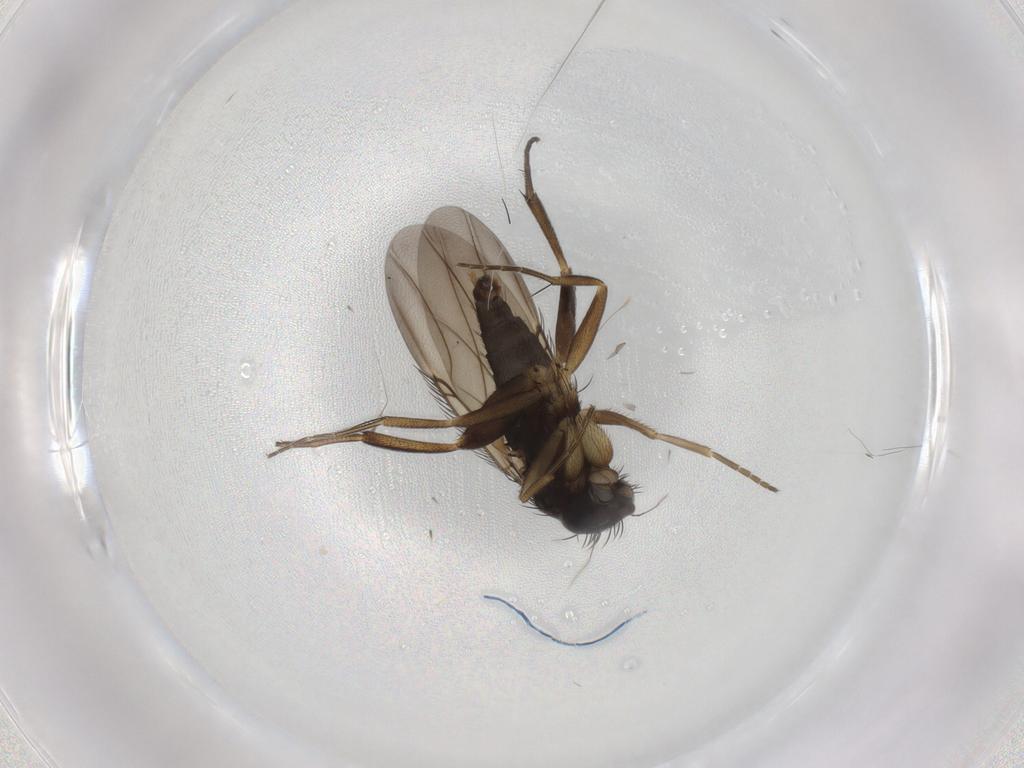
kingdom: Animalia
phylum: Arthropoda
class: Insecta
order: Diptera
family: Phoridae
